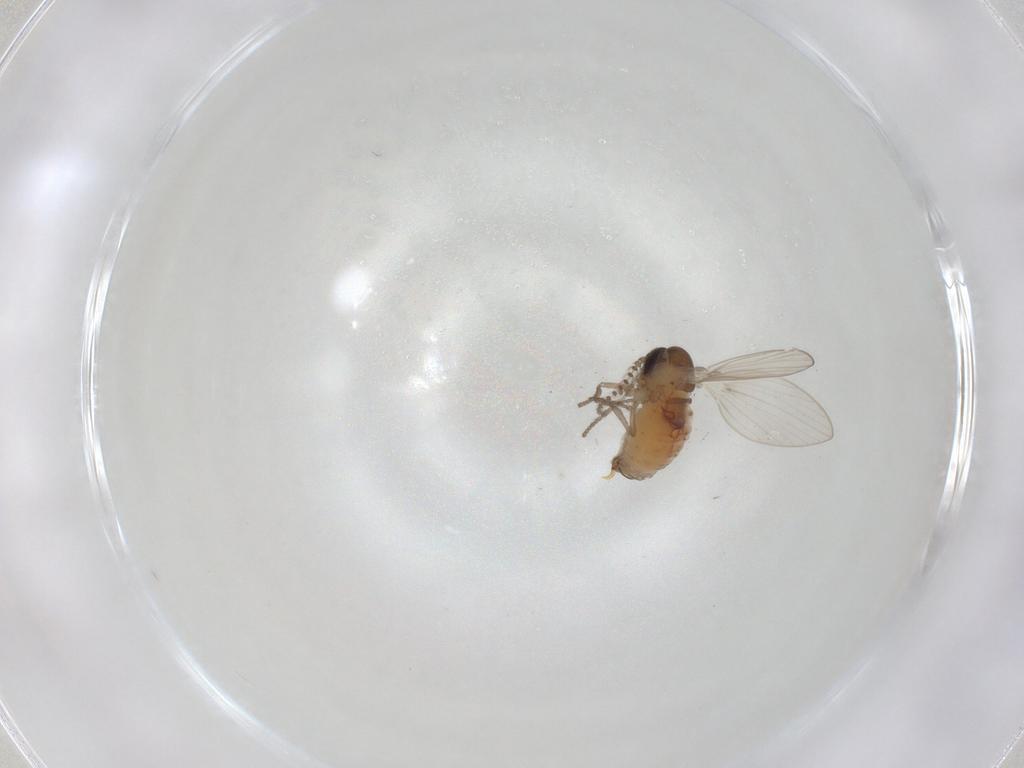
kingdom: Animalia
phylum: Arthropoda
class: Insecta
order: Diptera
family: Ceratopogonidae
